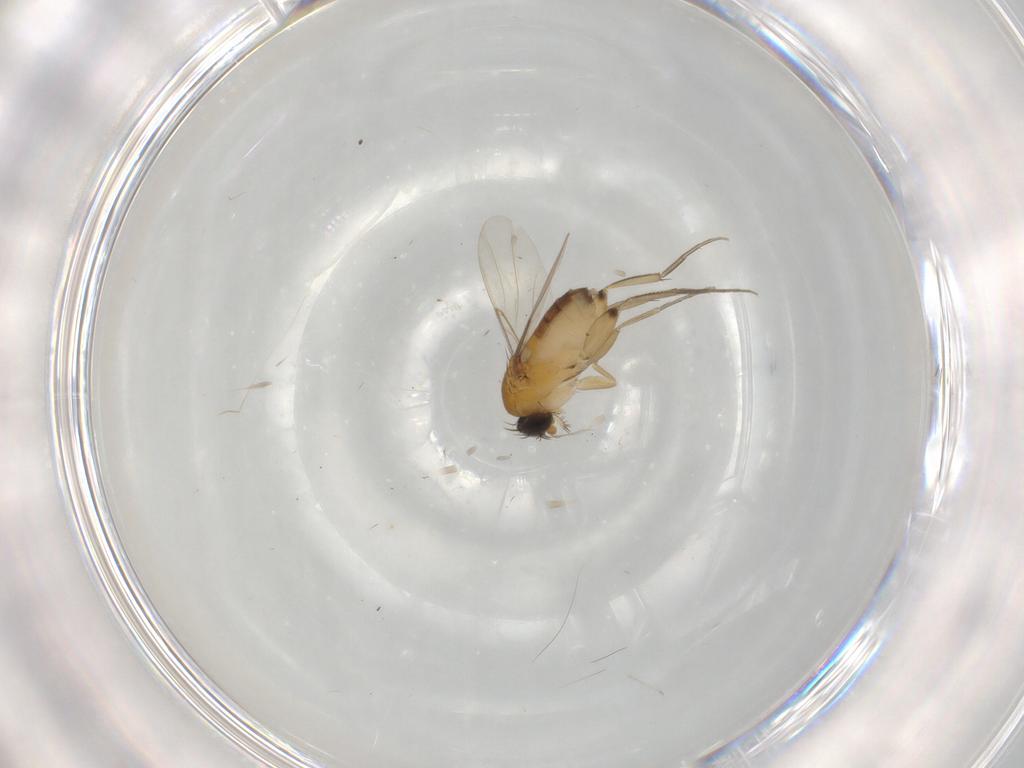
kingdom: Animalia
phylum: Arthropoda
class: Insecta
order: Diptera
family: Phoridae
